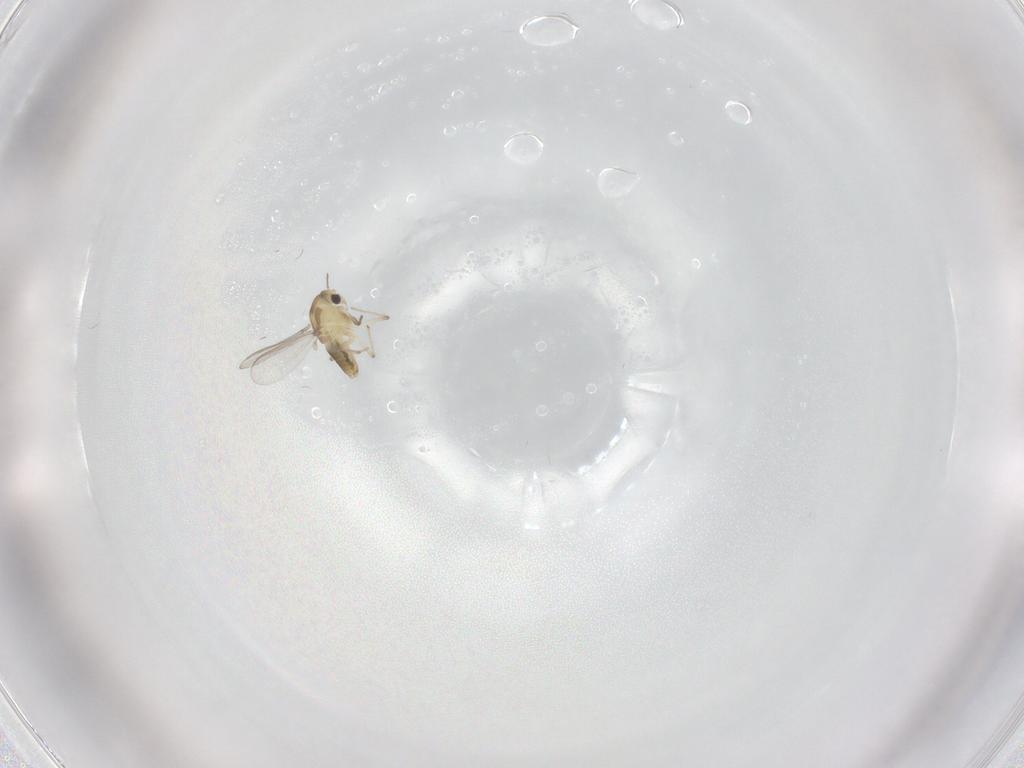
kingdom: Animalia
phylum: Arthropoda
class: Insecta
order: Diptera
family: Chironomidae
